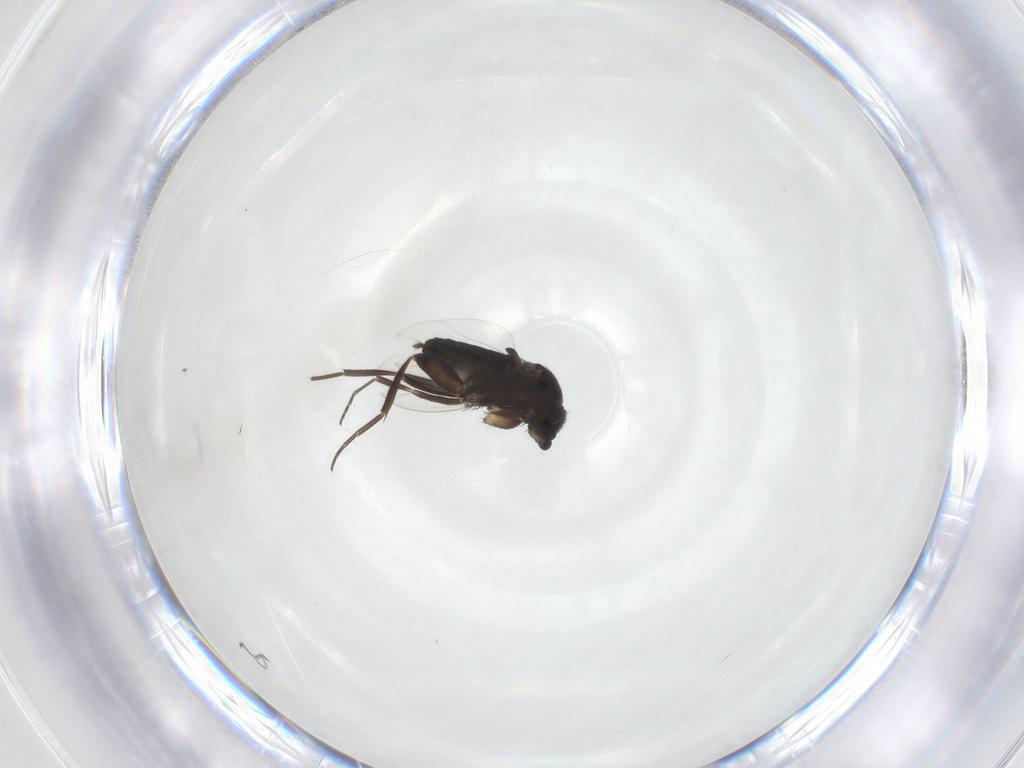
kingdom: Animalia
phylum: Arthropoda
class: Insecta
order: Diptera
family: Phoridae
